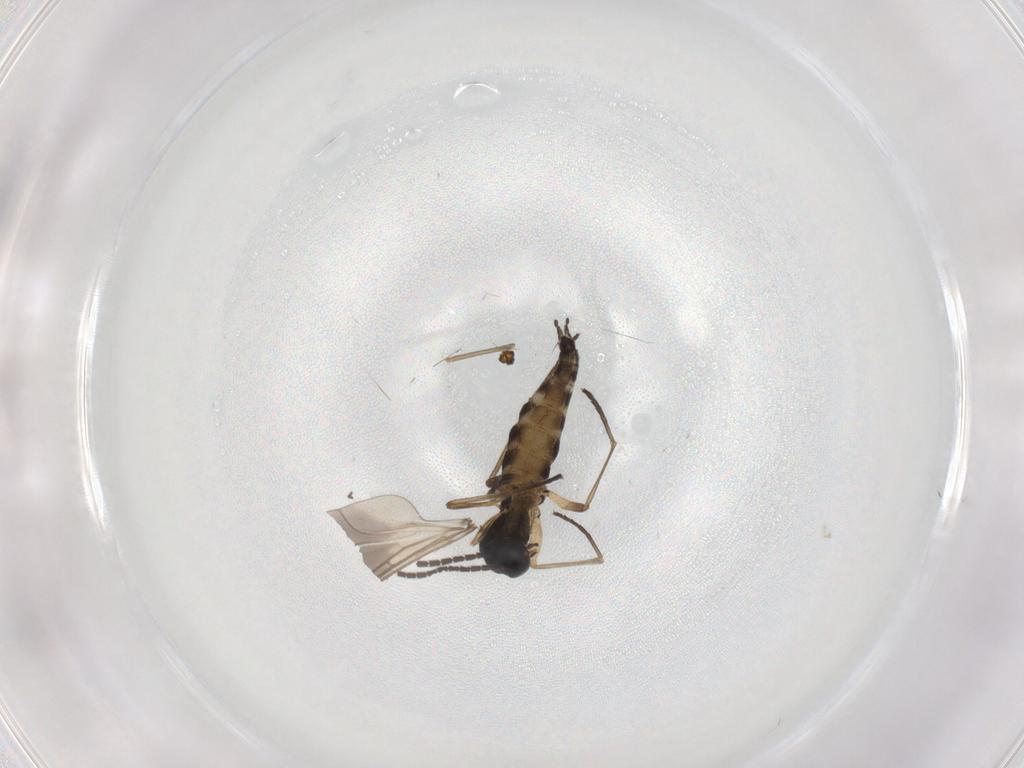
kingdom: Animalia
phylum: Arthropoda
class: Insecta
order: Diptera
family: Sciaridae
